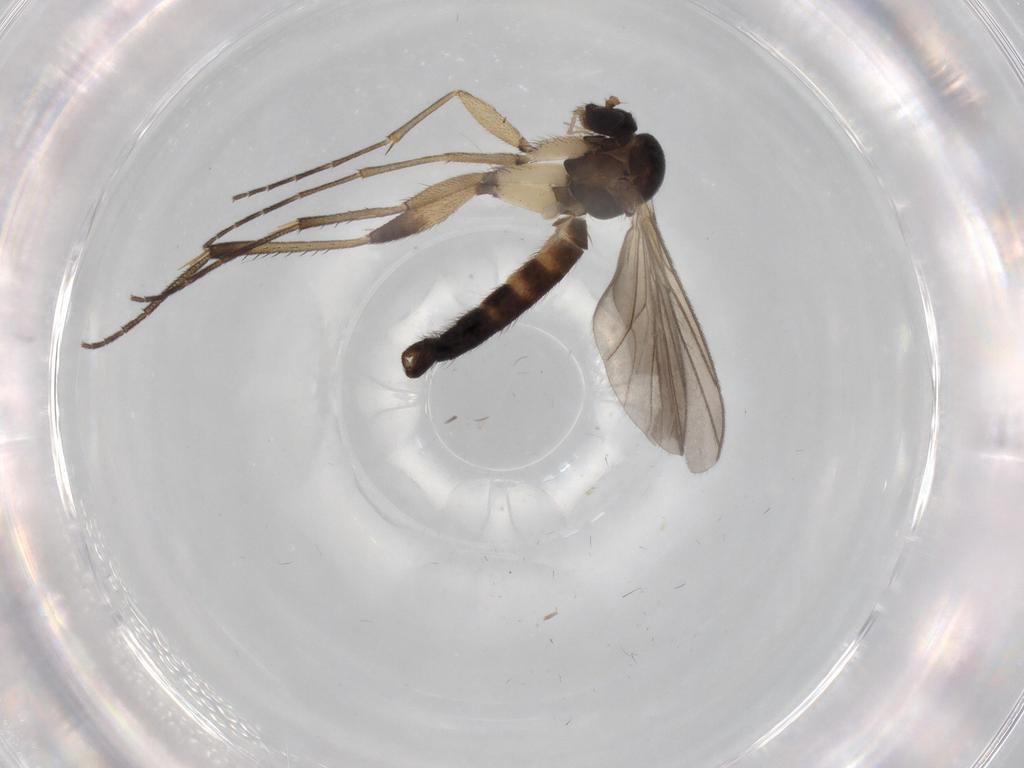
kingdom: Animalia
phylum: Arthropoda
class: Insecta
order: Diptera
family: Mycetophilidae
